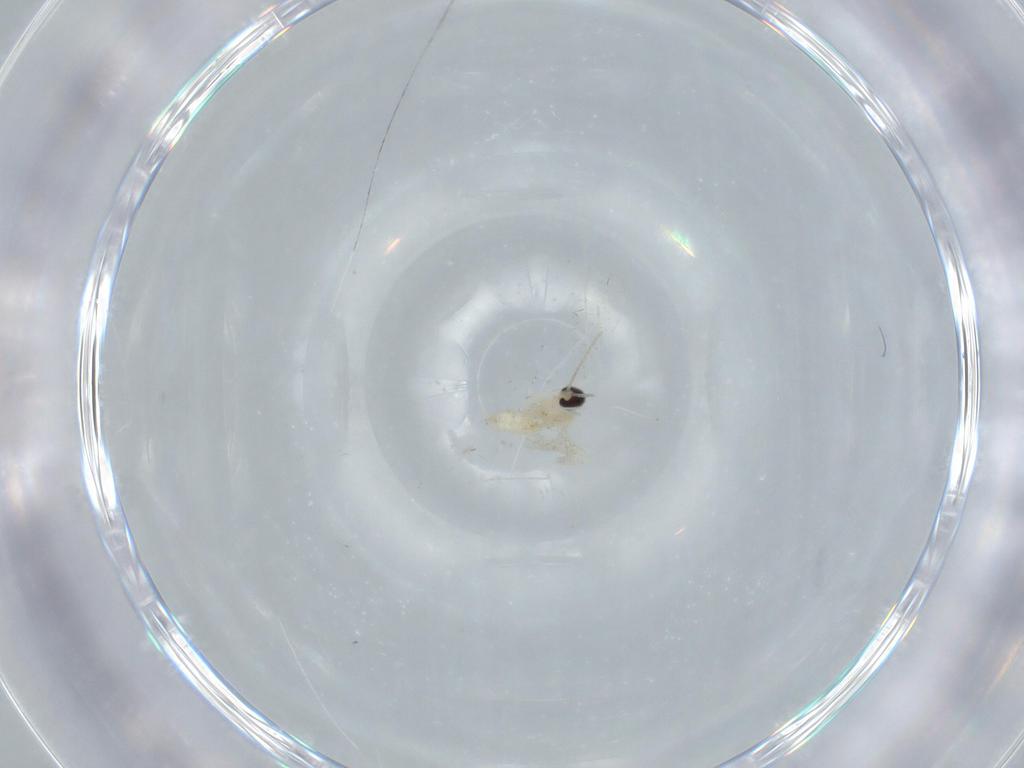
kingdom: Animalia
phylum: Arthropoda
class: Insecta
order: Diptera
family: Cecidomyiidae
